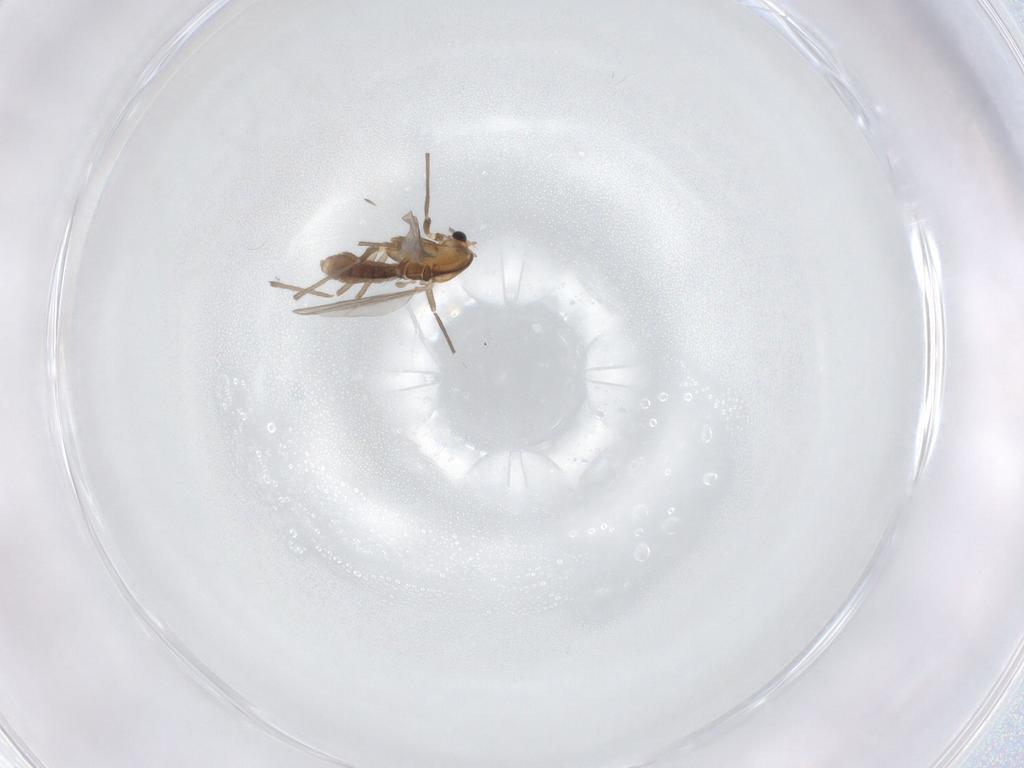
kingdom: Animalia
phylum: Arthropoda
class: Insecta
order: Diptera
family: Chironomidae
